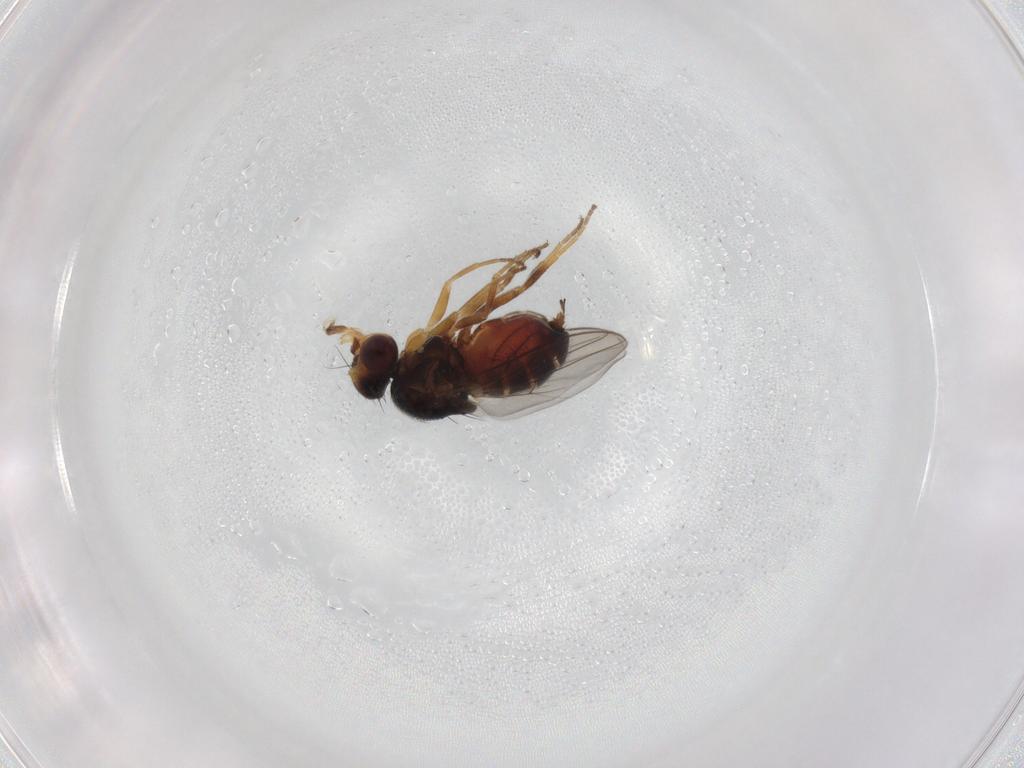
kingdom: Animalia
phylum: Arthropoda
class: Insecta
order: Diptera
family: Chloropidae
